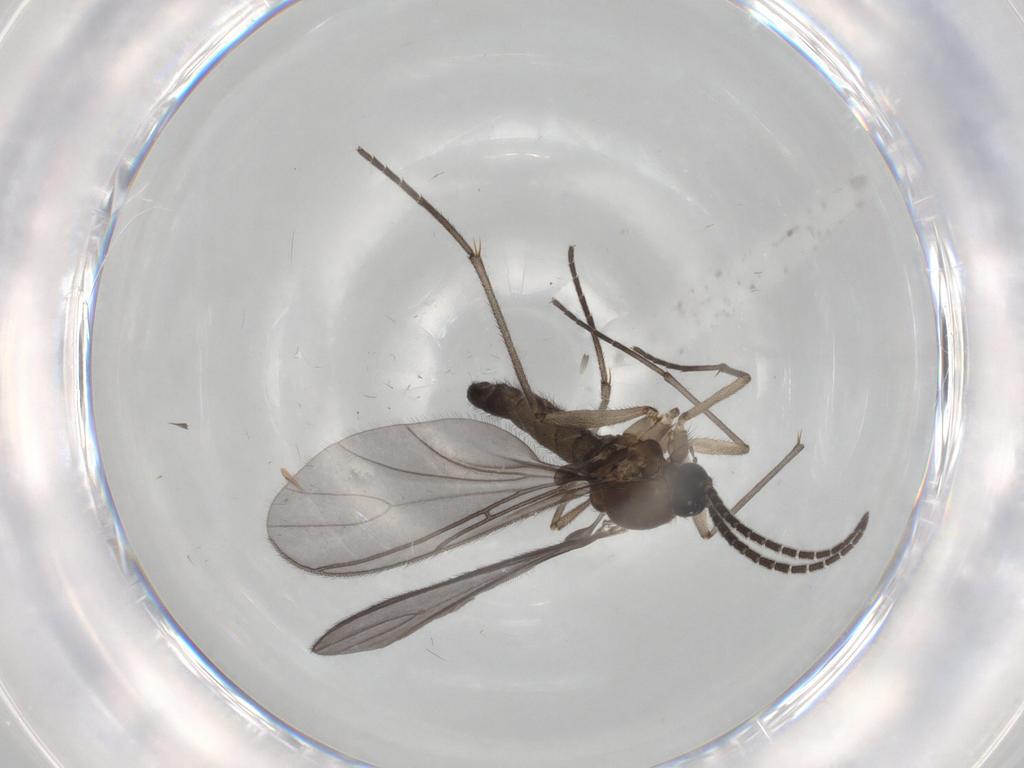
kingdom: Animalia
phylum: Arthropoda
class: Insecta
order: Diptera
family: Sciaridae
